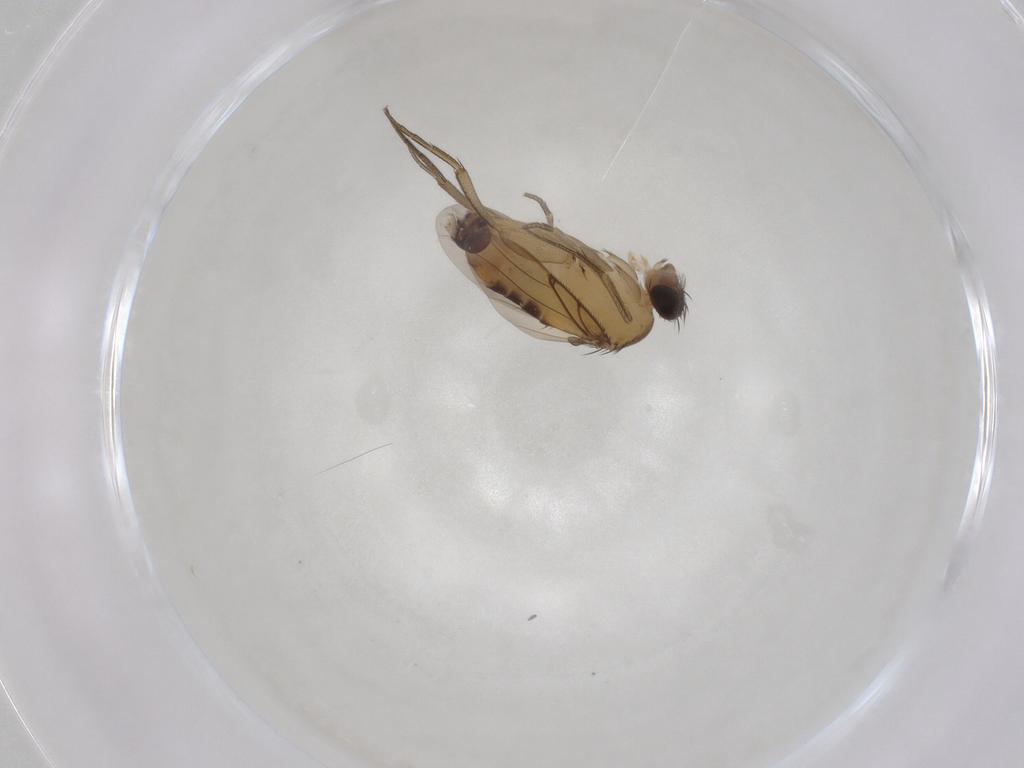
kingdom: Animalia
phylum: Arthropoda
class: Insecta
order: Diptera
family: Phoridae
